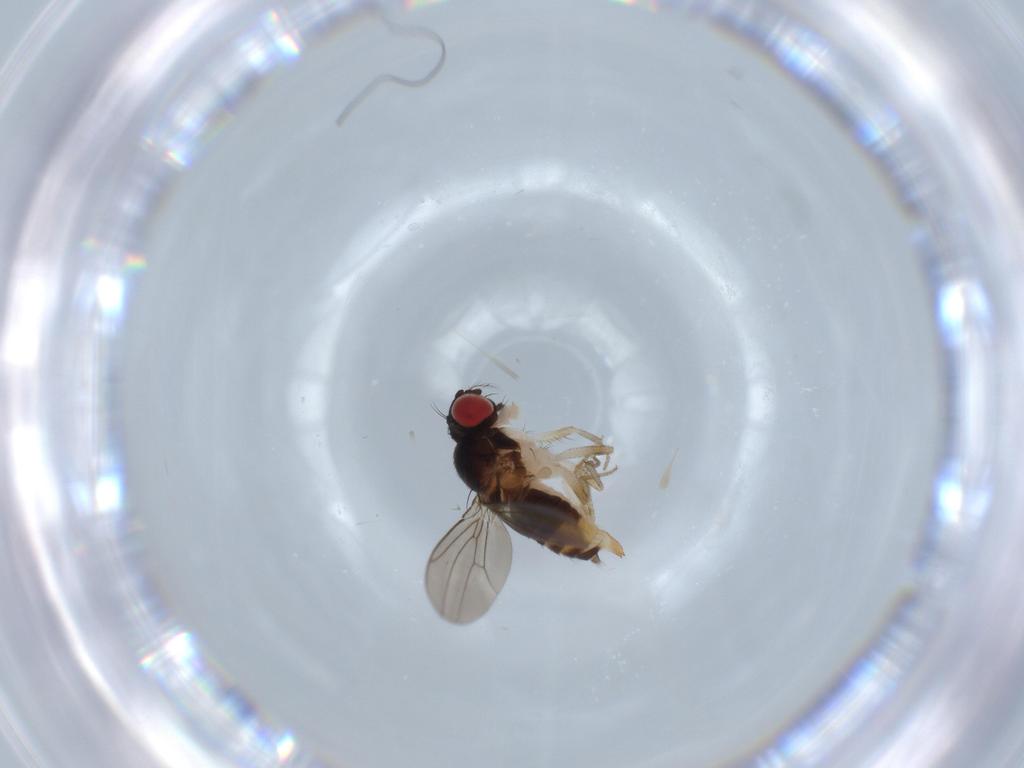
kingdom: Animalia
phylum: Arthropoda
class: Insecta
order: Diptera
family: Drosophilidae
